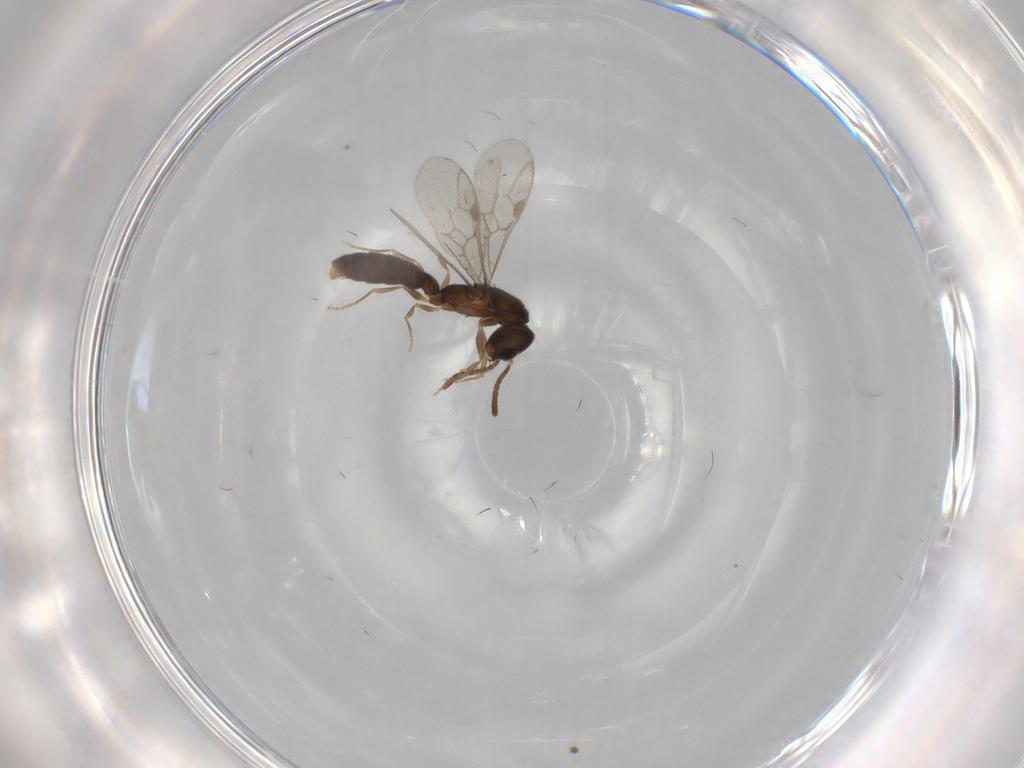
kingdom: Animalia
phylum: Arthropoda
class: Insecta
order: Hymenoptera
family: Formicidae
